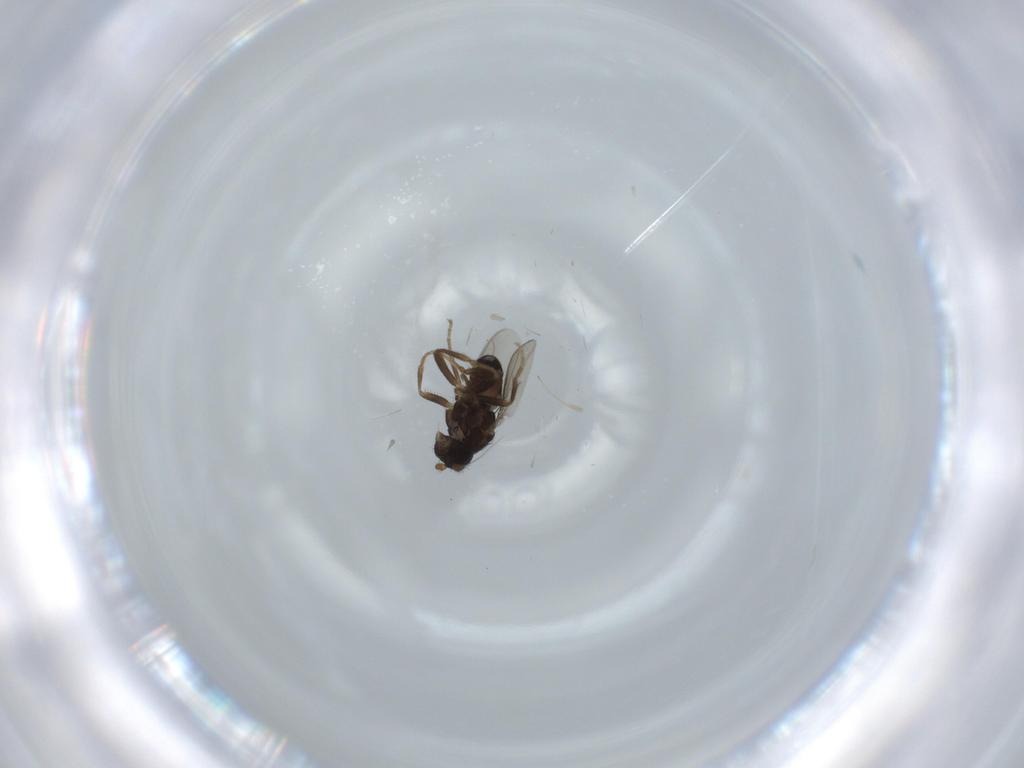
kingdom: Animalia
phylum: Arthropoda
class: Insecta
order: Diptera
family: Sphaeroceridae
